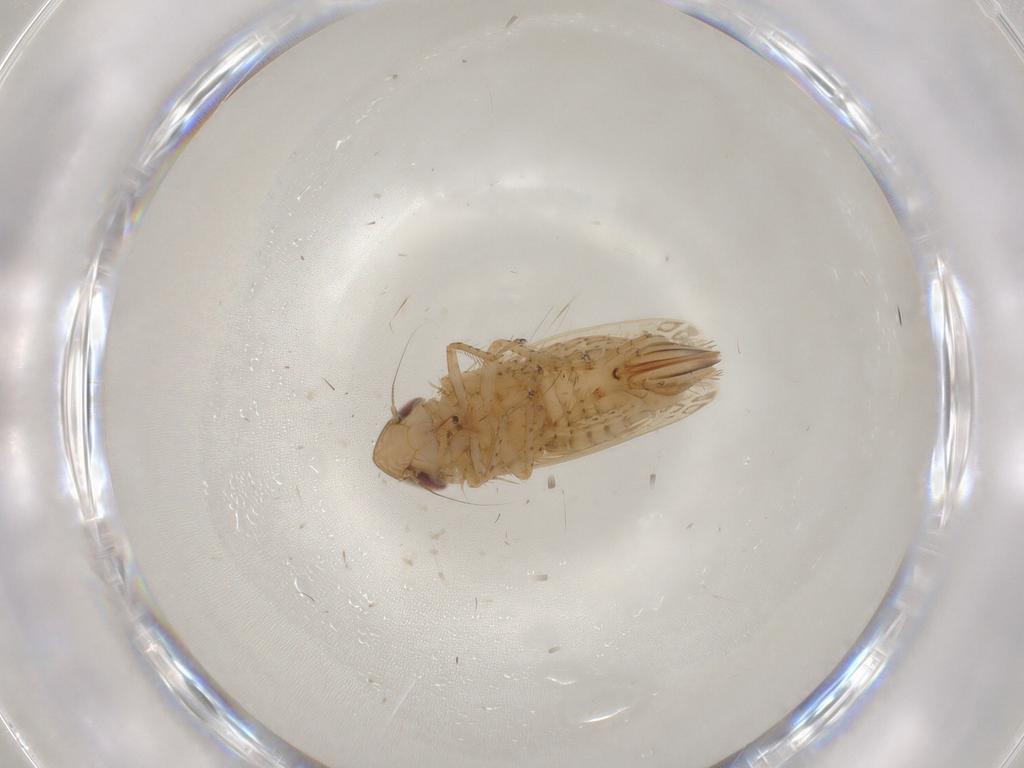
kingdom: Animalia
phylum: Arthropoda
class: Insecta
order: Hemiptera
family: Cicadellidae
